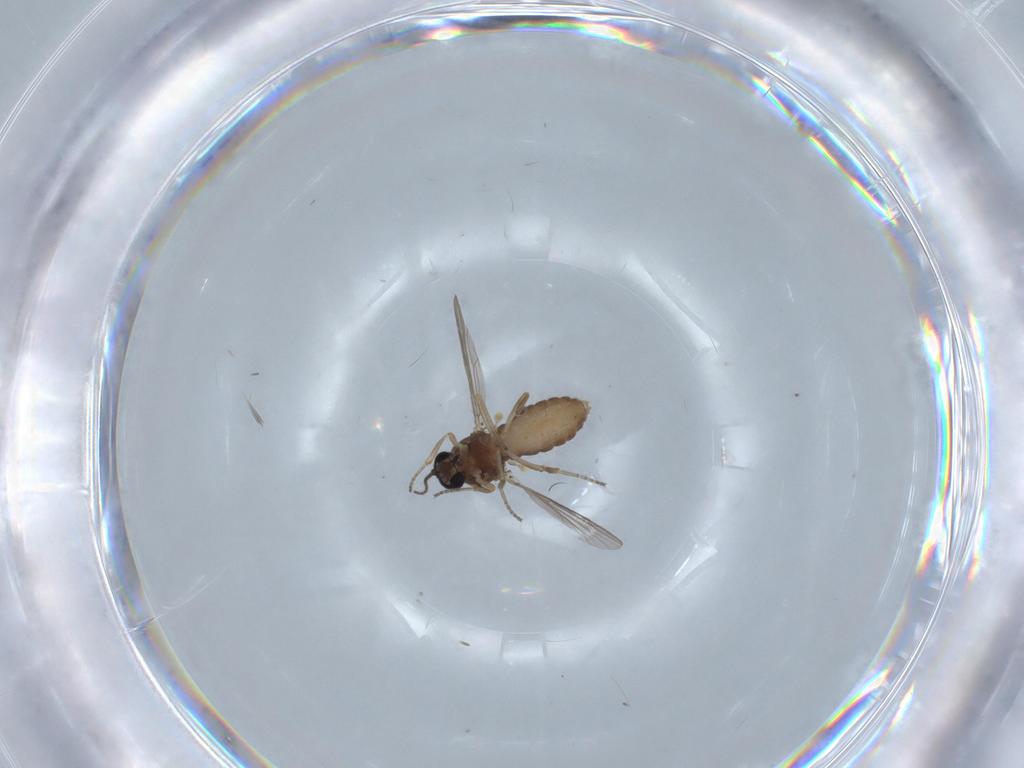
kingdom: Animalia
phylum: Arthropoda
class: Insecta
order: Diptera
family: Ceratopogonidae
